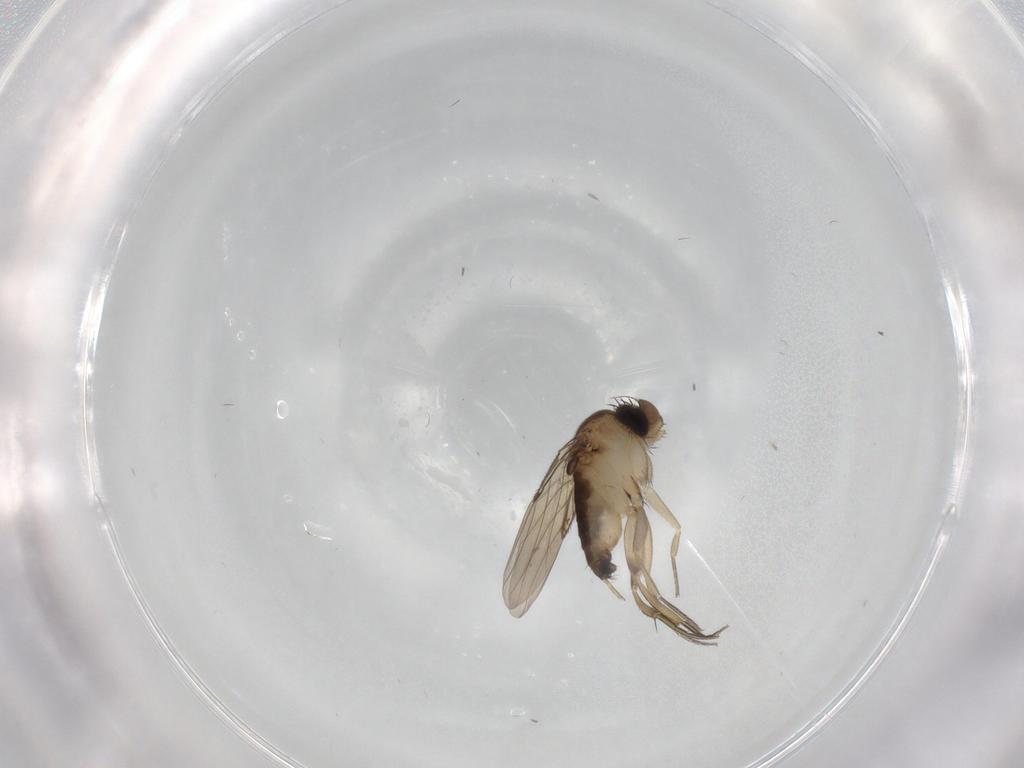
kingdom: Animalia
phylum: Arthropoda
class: Insecta
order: Diptera
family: Phoridae
